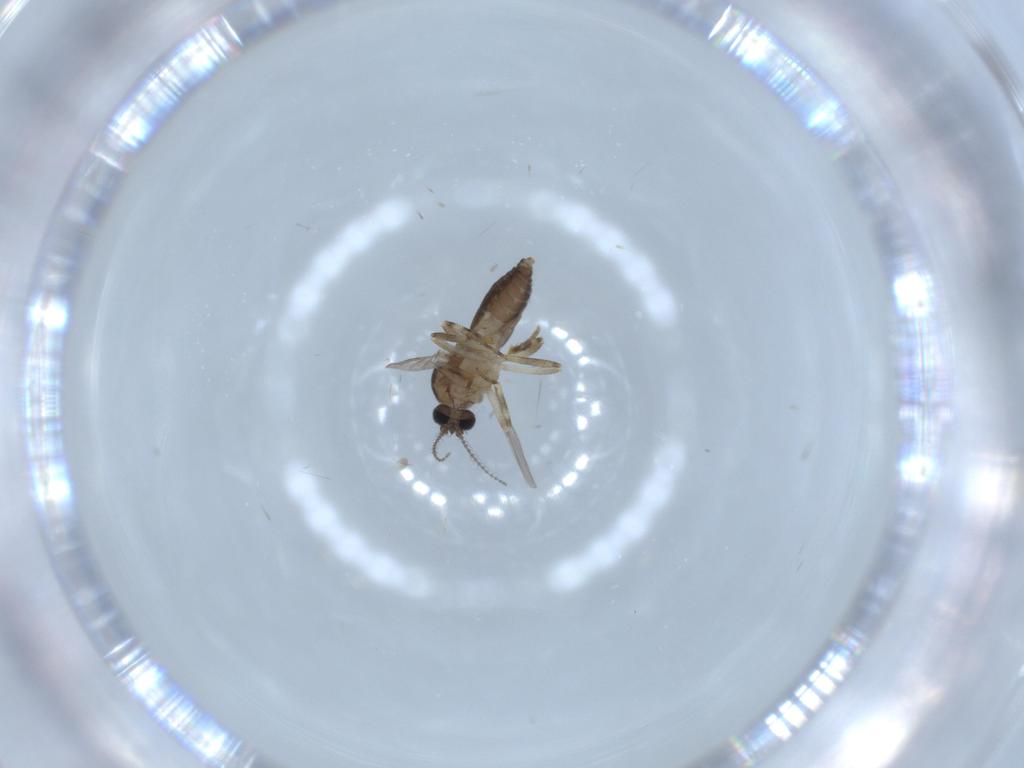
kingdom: Animalia
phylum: Arthropoda
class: Insecta
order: Diptera
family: Ceratopogonidae
